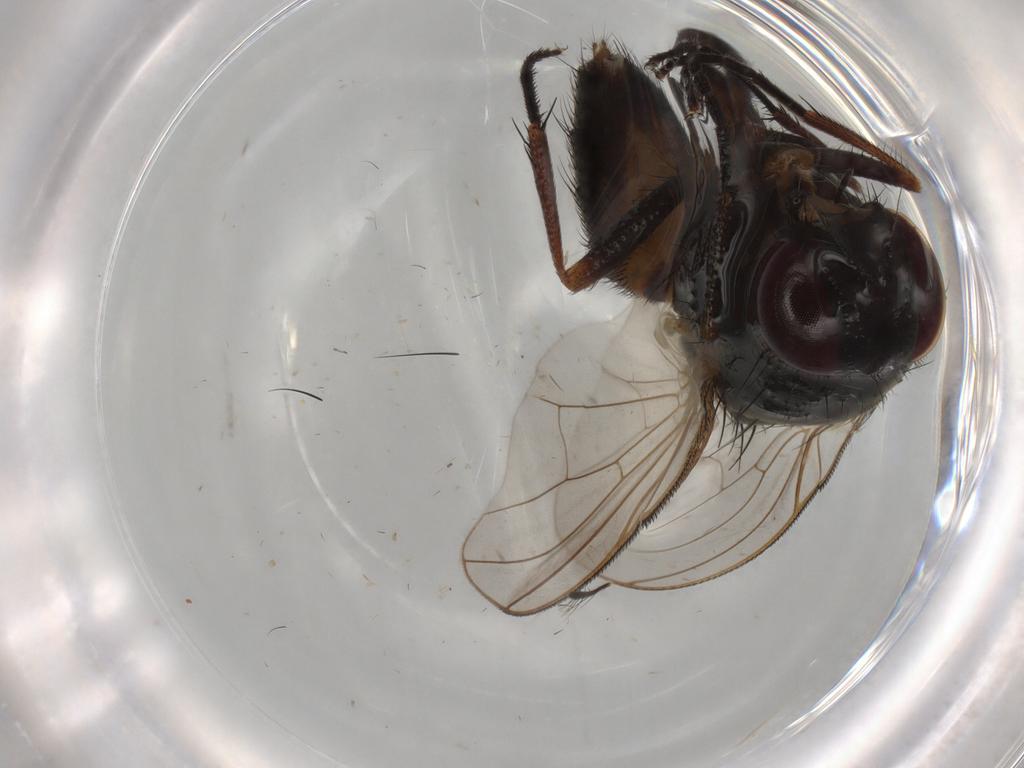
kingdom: Animalia
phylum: Arthropoda
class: Insecta
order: Diptera
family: Fannia
